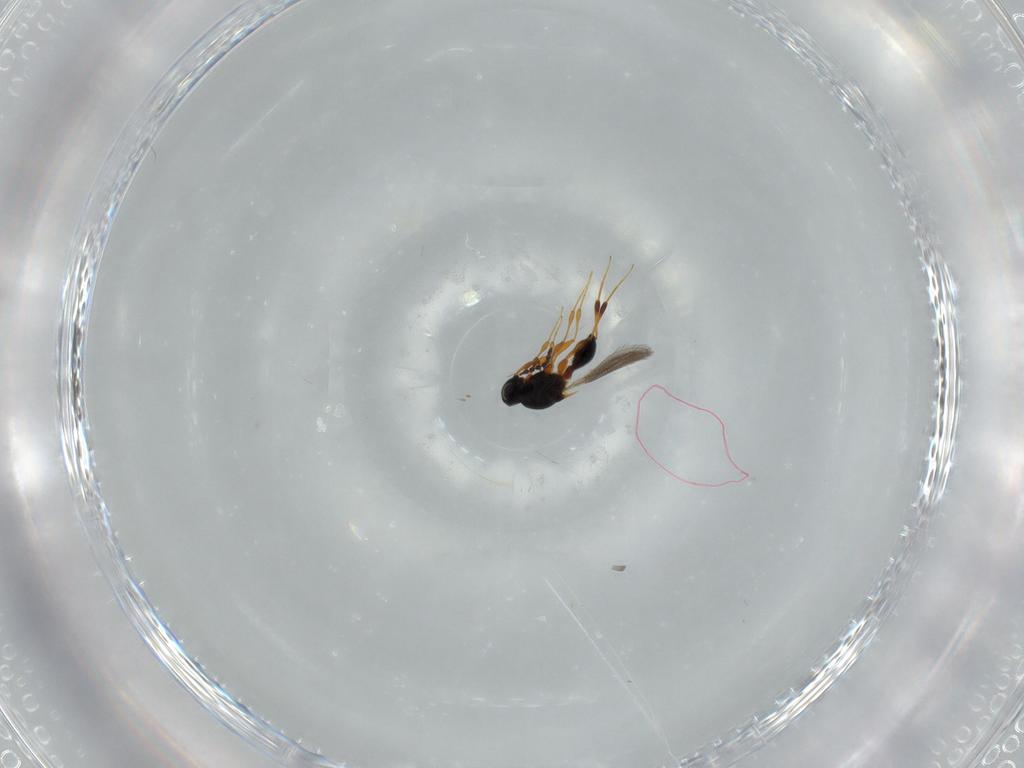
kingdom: Animalia
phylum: Arthropoda
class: Insecta
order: Hymenoptera
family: Platygastridae
